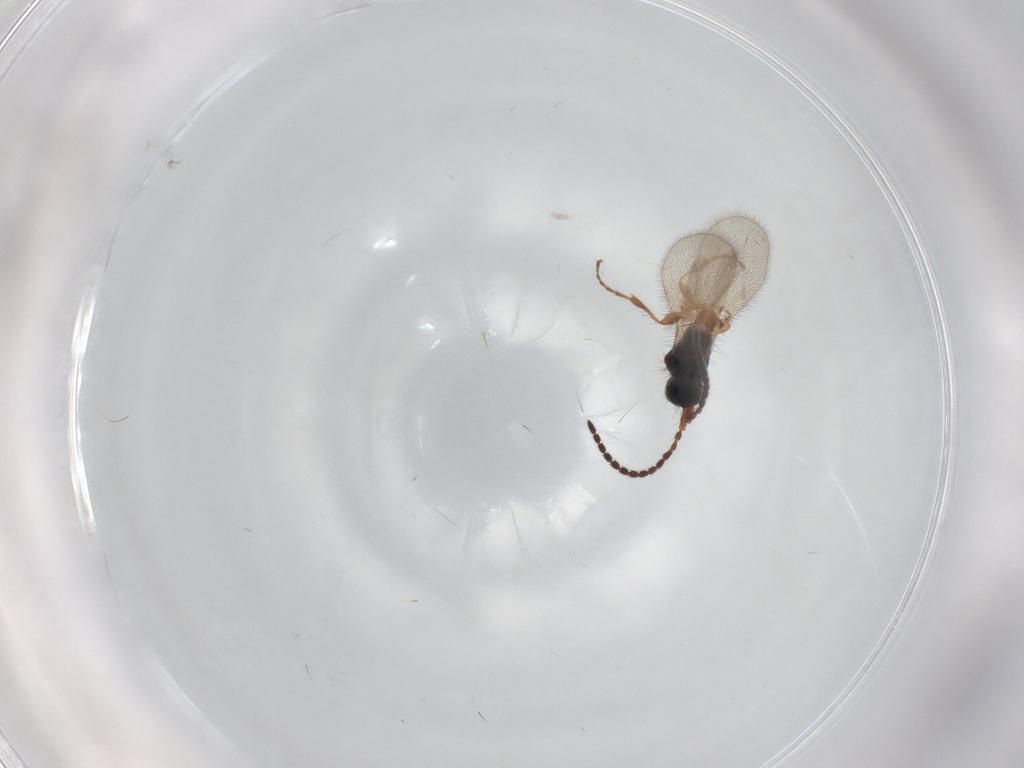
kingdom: Animalia
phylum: Arthropoda
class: Insecta
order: Hymenoptera
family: Diapriidae
